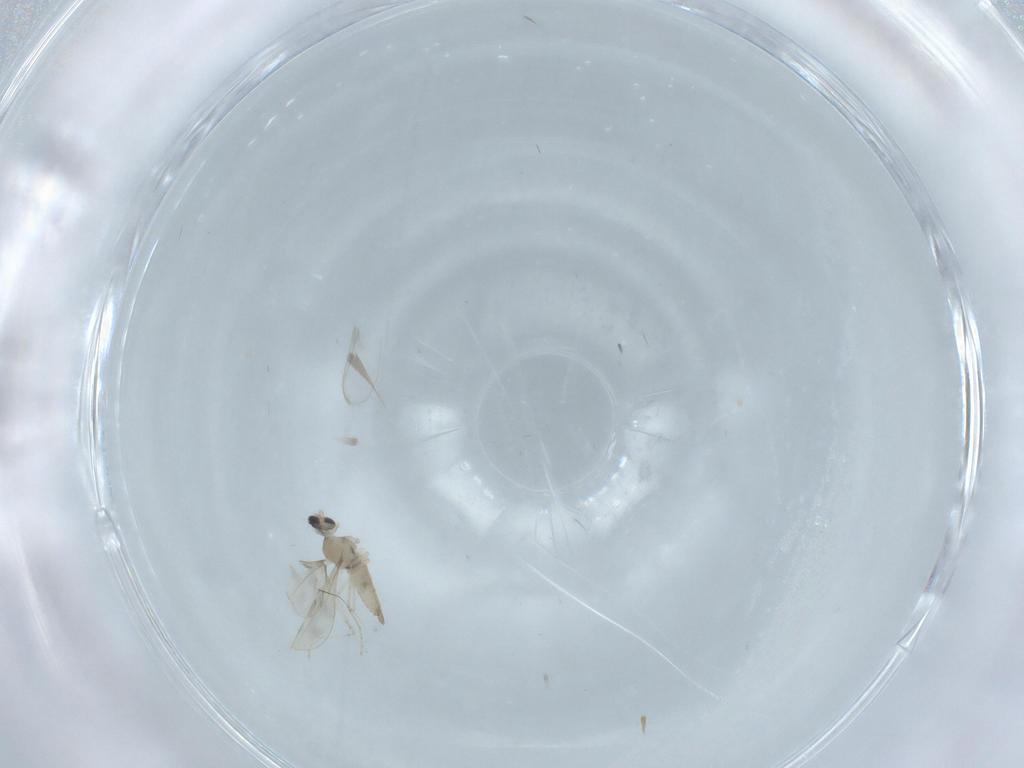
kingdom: Animalia
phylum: Arthropoda
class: Insecta
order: Diptera
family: Cecidomyiidae
